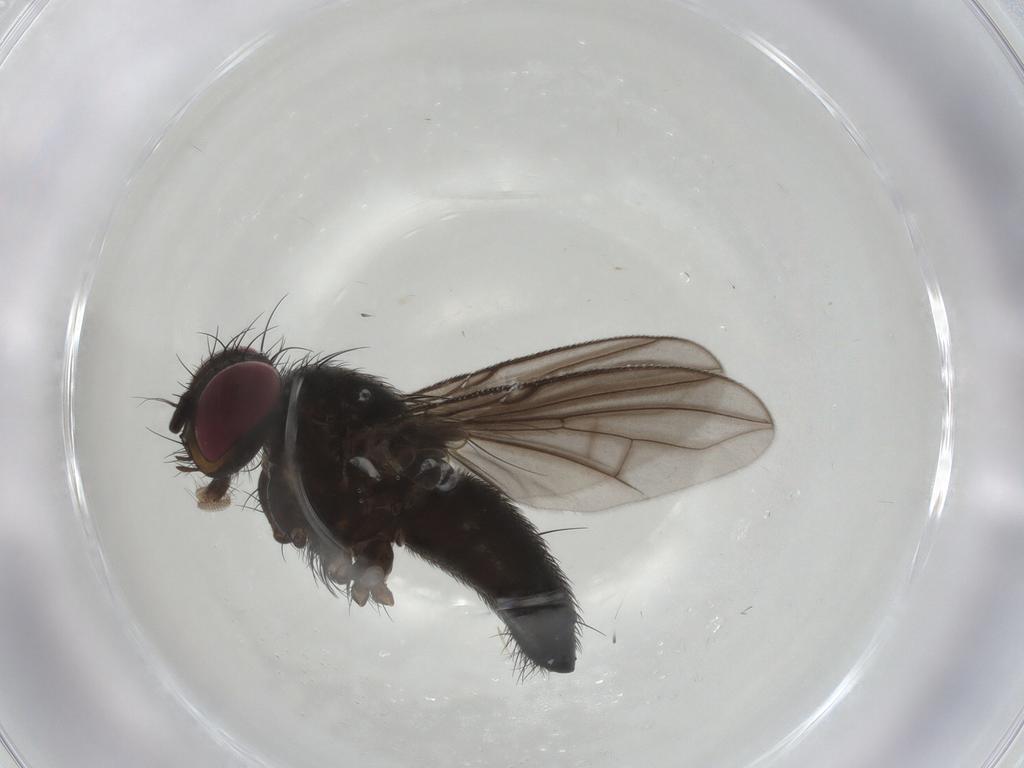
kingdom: Animalia
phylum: Arthropoda
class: Insecta
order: Diptera
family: Calliphoridae
